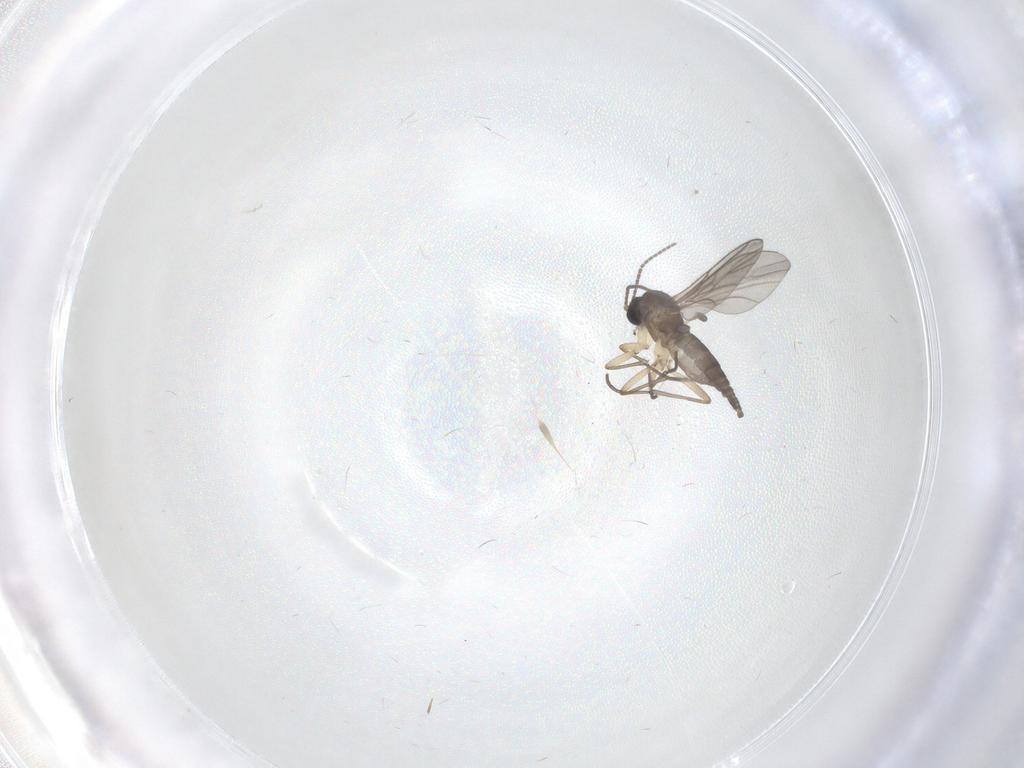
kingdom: Animalia
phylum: Arthropoda
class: Insecta
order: Diptera
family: Sciaridae
